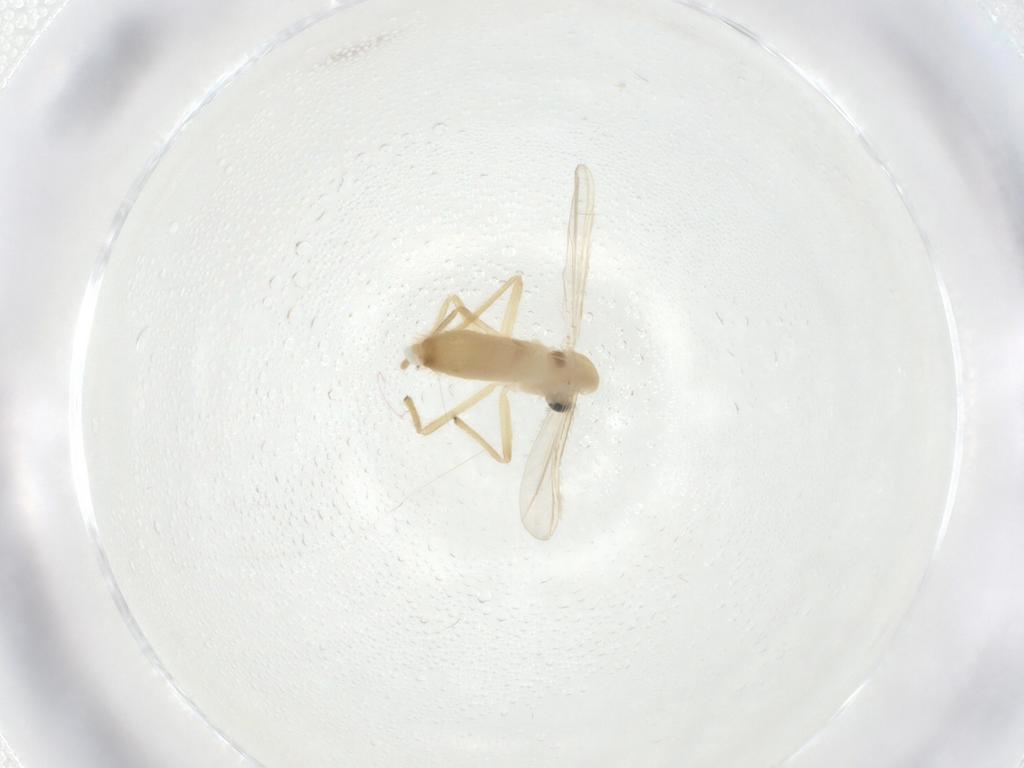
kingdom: Animalia
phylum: Arthropoda
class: Insecta
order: Diptera
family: Chironomidae
